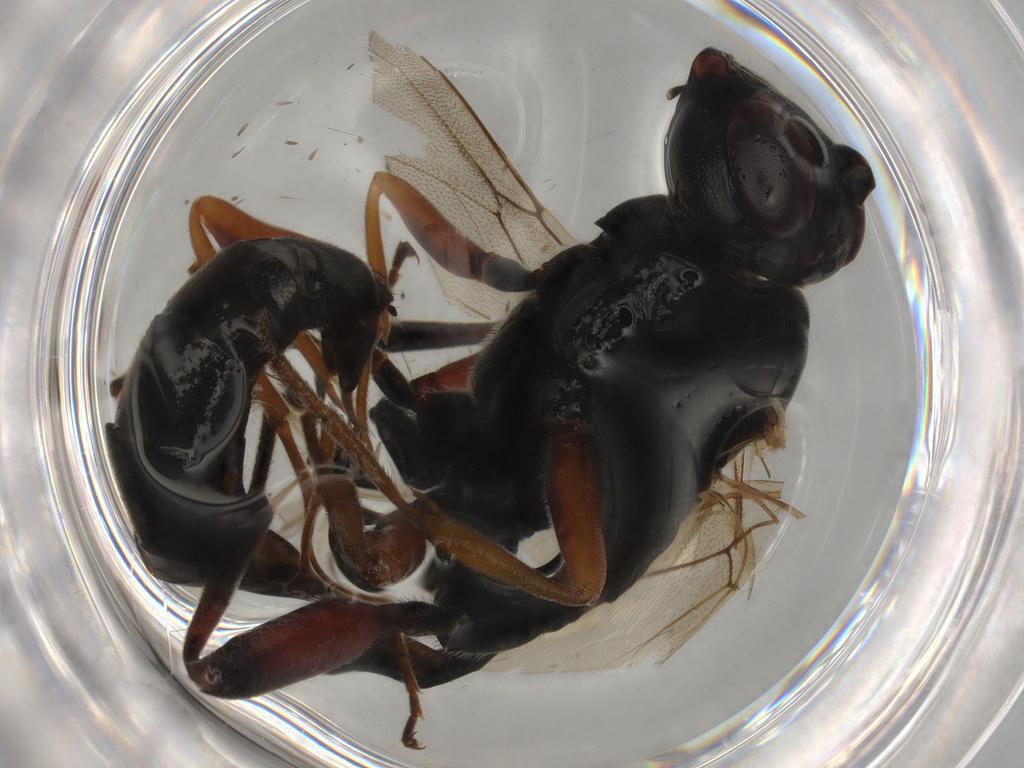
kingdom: Animalia
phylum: Arthropoda
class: Insecta
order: Hymenoptera
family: Ichneumonidae
